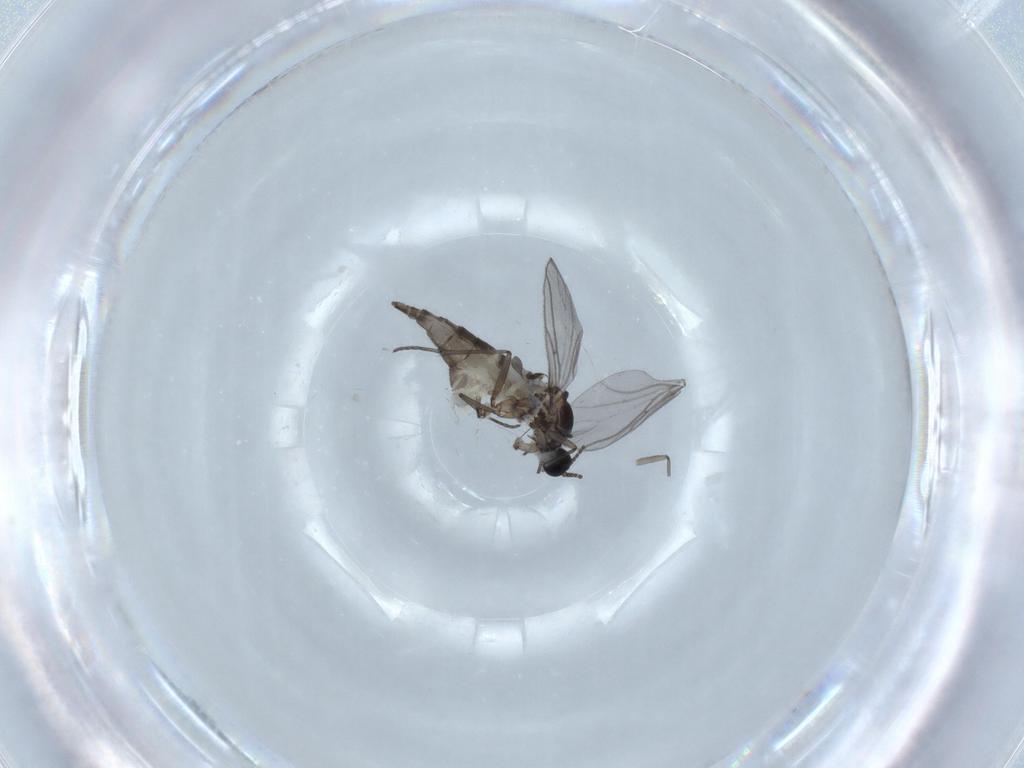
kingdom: Animalia
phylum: Arthropoda
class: Insecta
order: Diptera
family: Chironomidae
